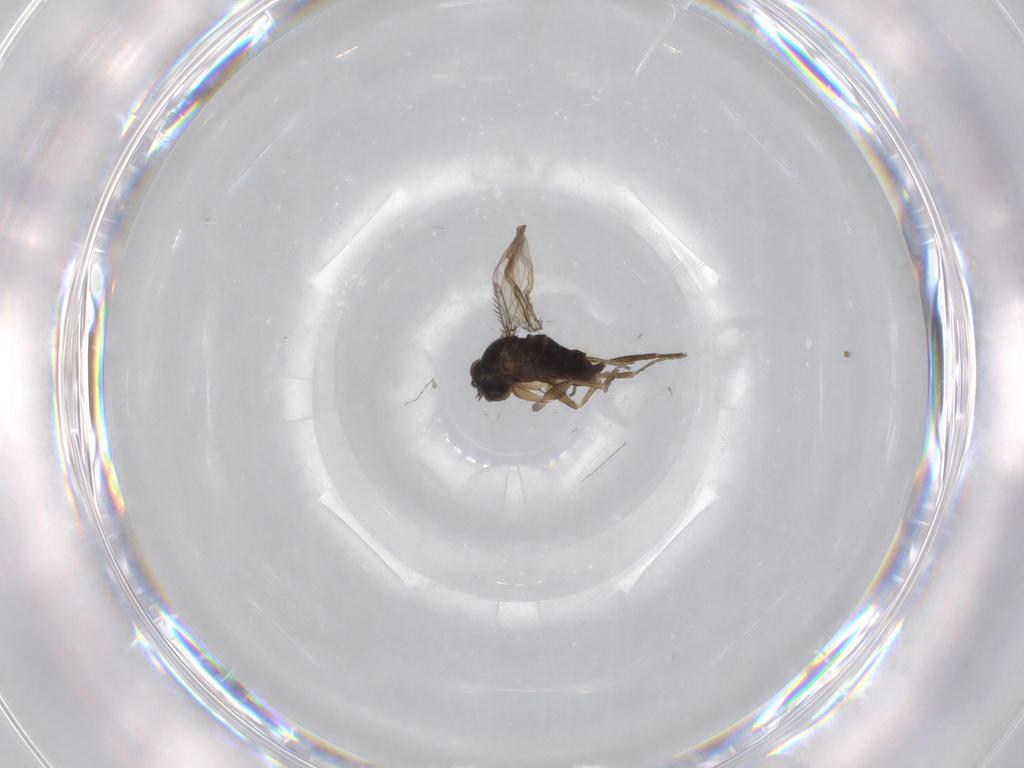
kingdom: Animalia
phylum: Arthropoda
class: Insecta
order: Diptera
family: Phoridae
